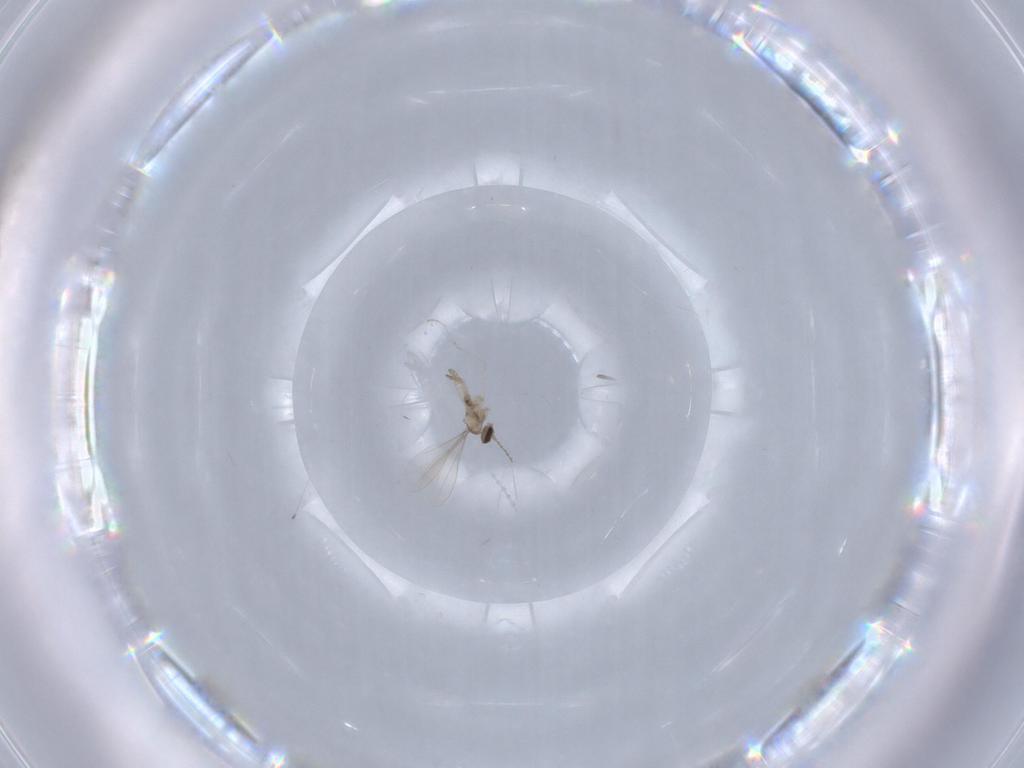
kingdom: Animalia
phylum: Arthropoda
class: Insecta
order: Diptera
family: Cecidomyiidae
